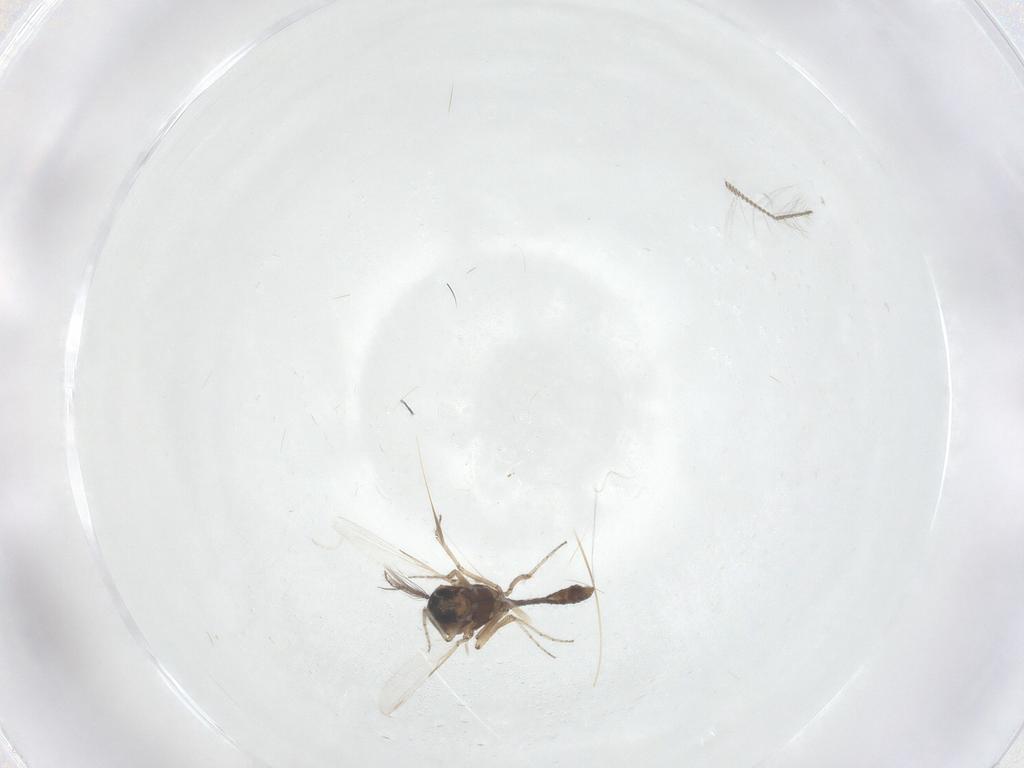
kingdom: Animalia
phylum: Arthropoda
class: Insecta
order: Diptera
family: Ceratopogonidae
